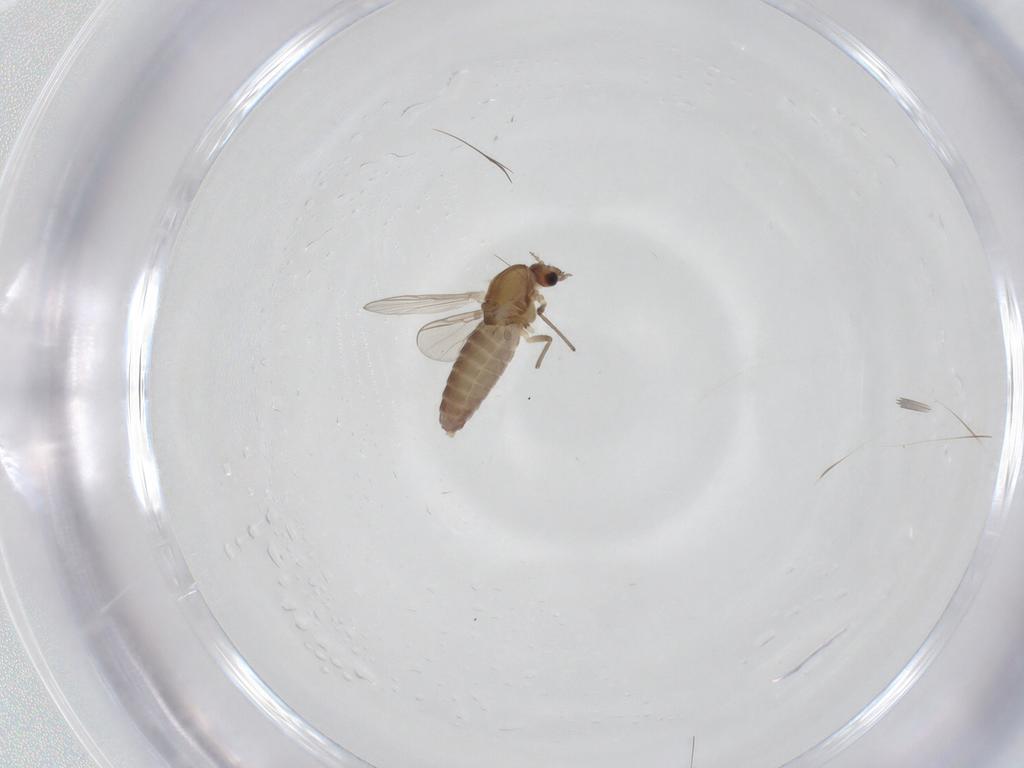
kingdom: Animalia
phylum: Arthropoda
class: Insecta
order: Diptera
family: Chironomidae
